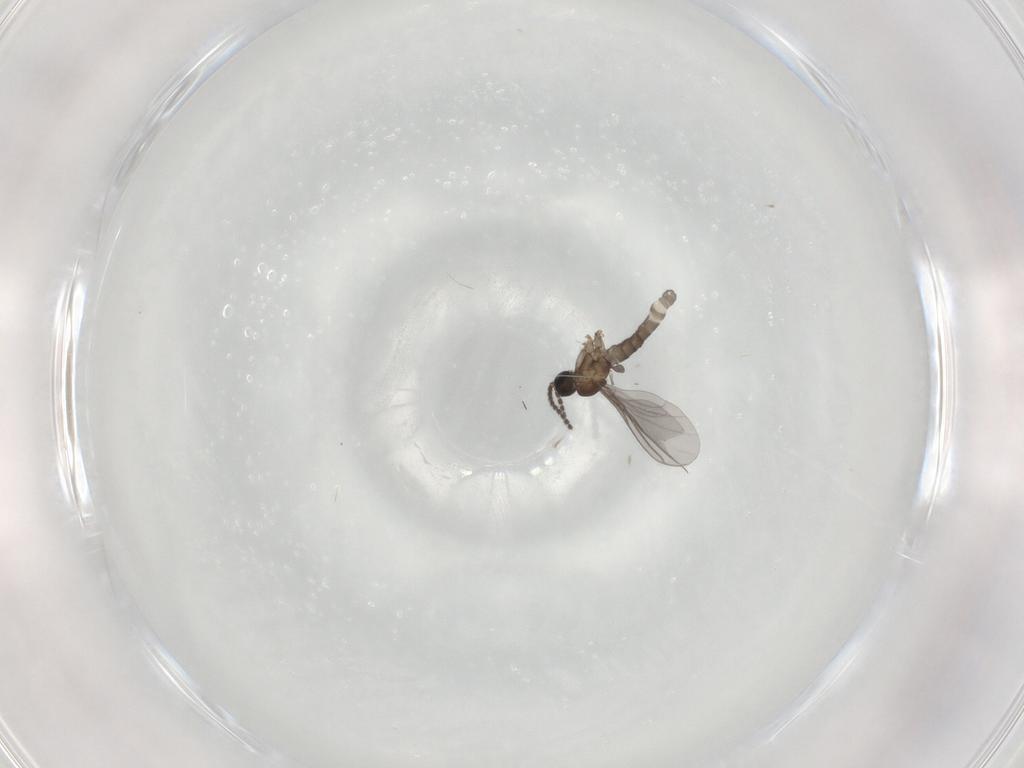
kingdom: Animalia
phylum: Arthropoda
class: Insecta
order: Diptera
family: Sciaridae
